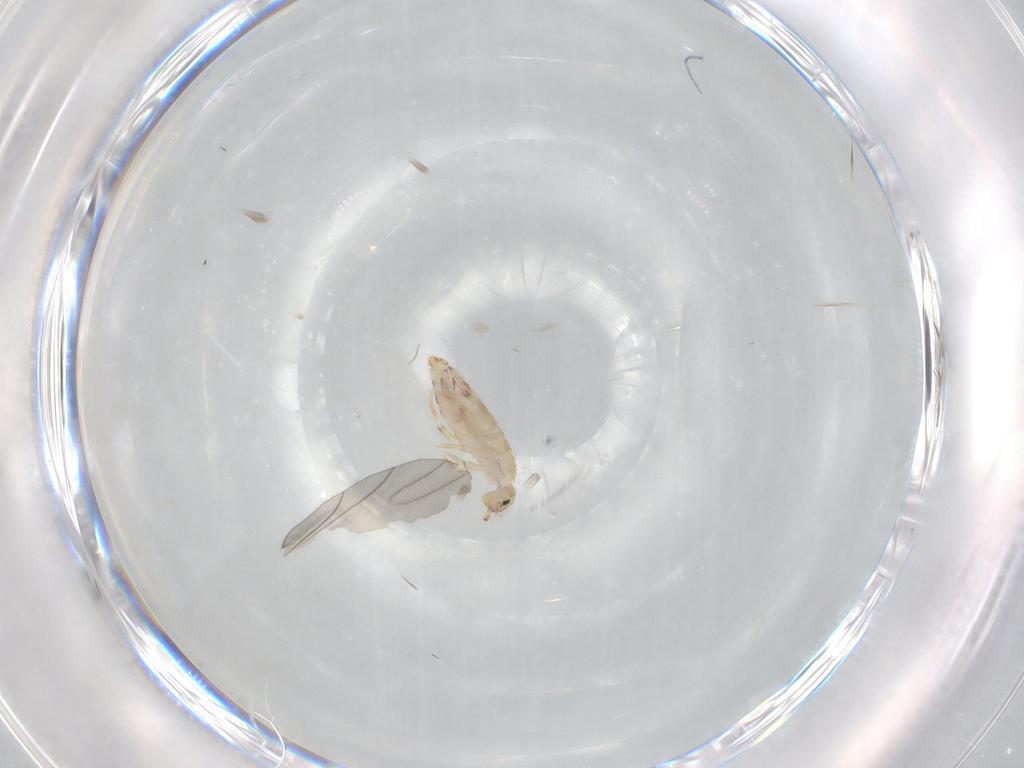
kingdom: Animalia
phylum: Arthropoda
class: Collembola
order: Entomobryomorpha
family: Entomobryidae
